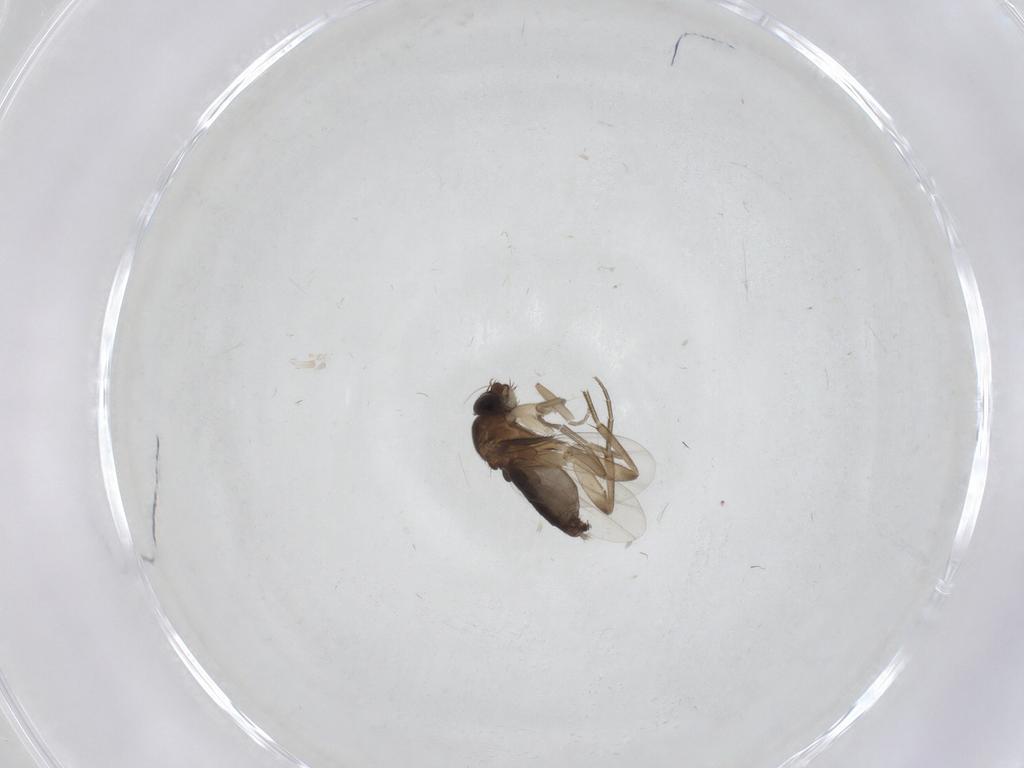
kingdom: Animalia
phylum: Arthropoda
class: Insecta
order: Diptera
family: Phoridae
